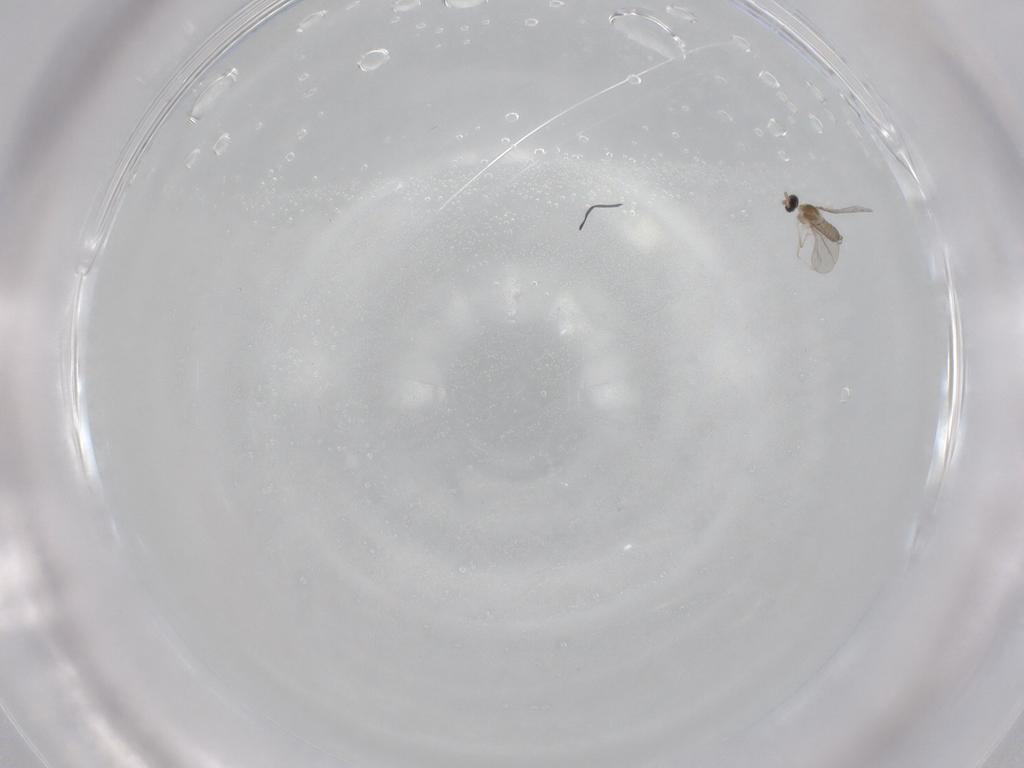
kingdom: Animalia
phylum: Arthropoda
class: Insecta
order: Diptera
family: Cecidomyiidae
